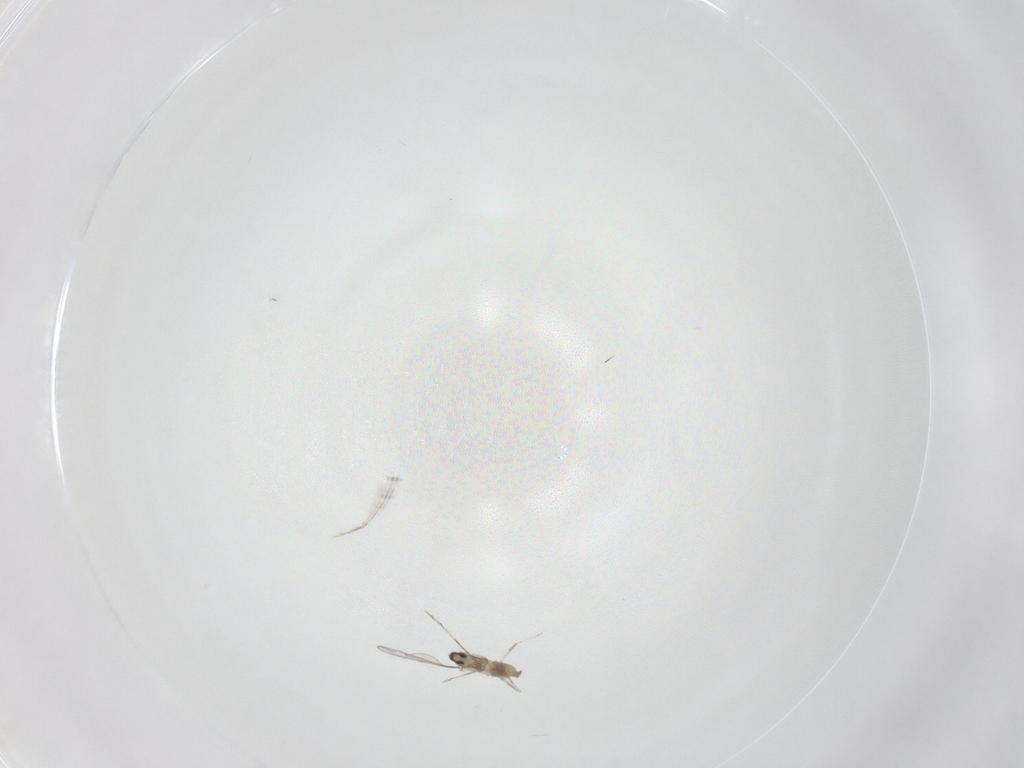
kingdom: Animalia
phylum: Arthropoda
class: Insecta
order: Diptera
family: Cecidomyiidae
